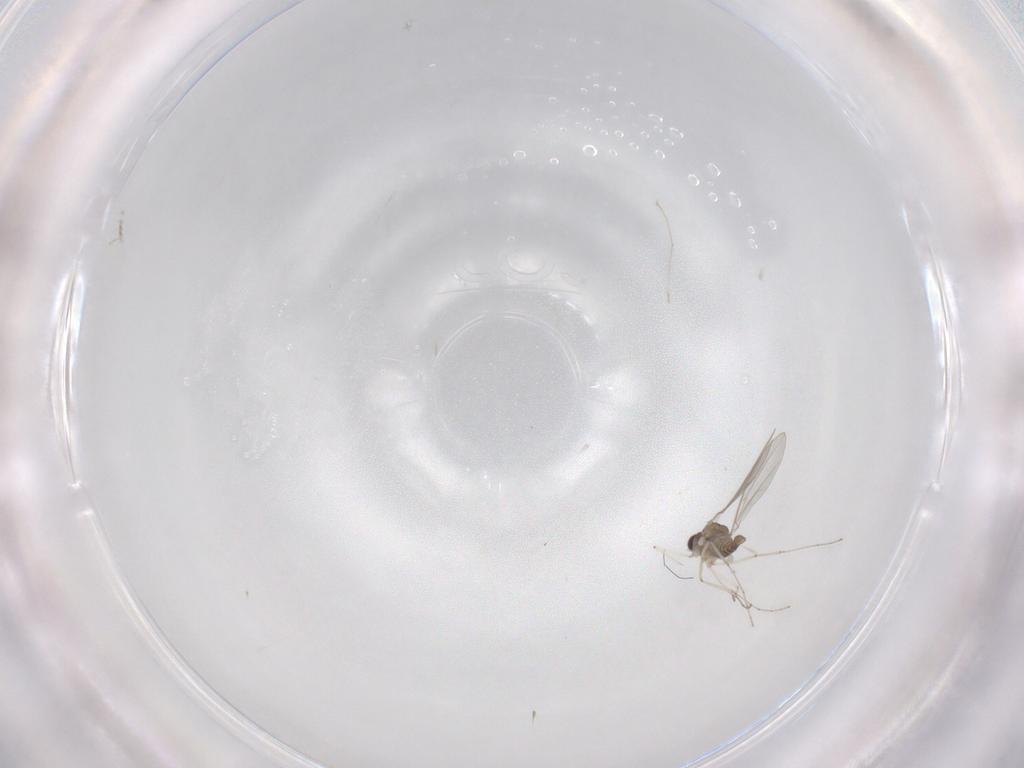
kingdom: Animalia
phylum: Arthropoda
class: Insecta
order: Diptera
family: Cecidomyiidae
